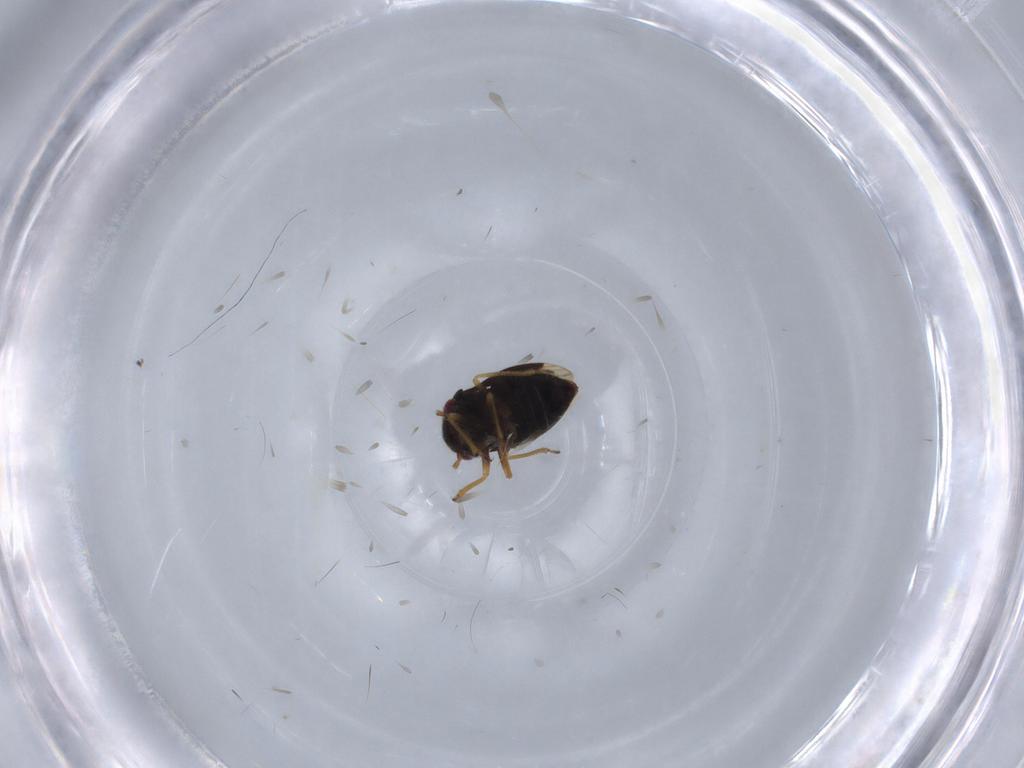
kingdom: Animalia
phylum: Arthropoda
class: Insecta
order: Hemiptera
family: Schizopteridae
